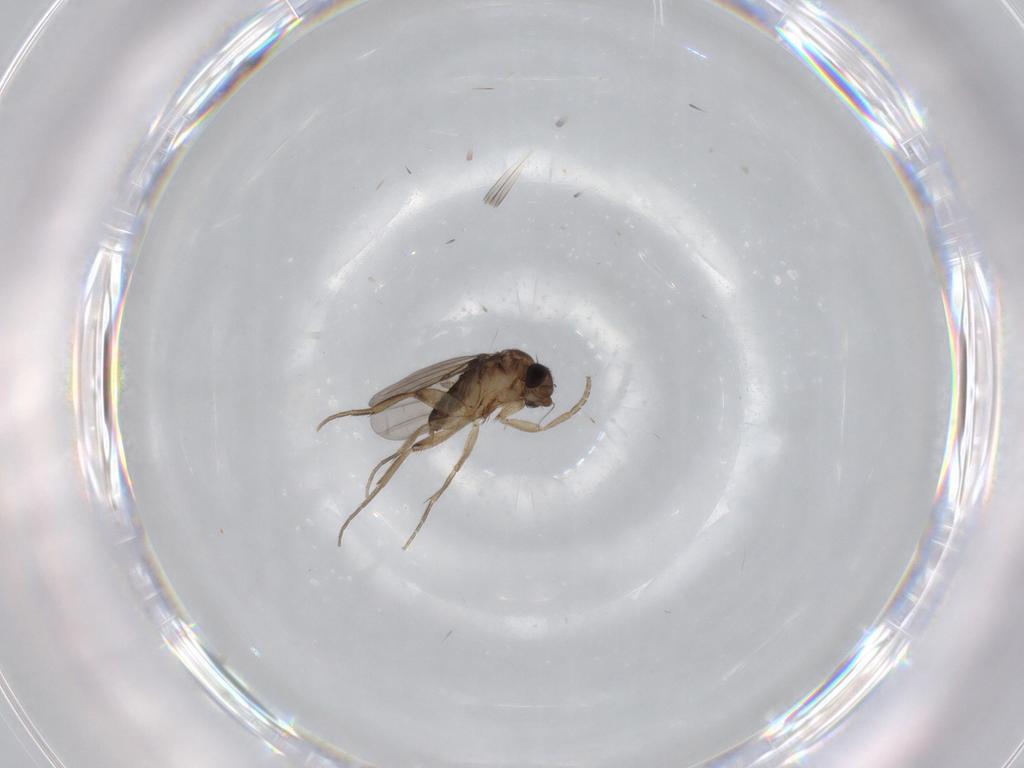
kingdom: Animalia
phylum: Arthropoda
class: Insecta
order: Diptera
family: Phoridae
